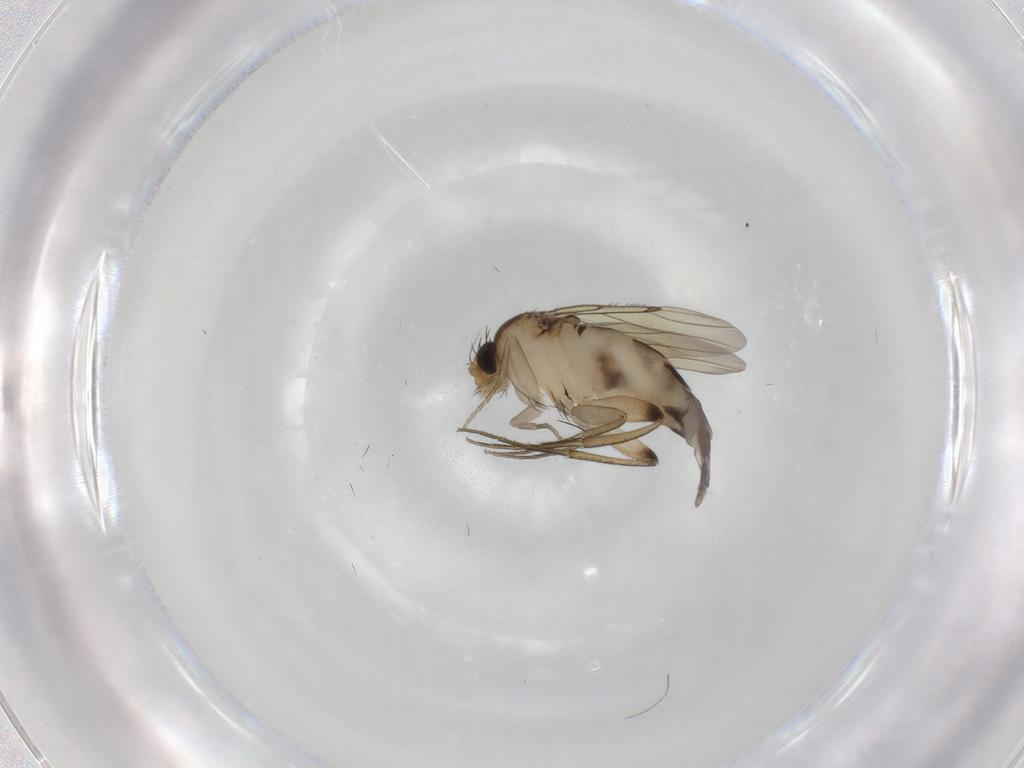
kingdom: Animalia
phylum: Arthropoda
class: Insecta
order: Diptera
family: Phoridae
